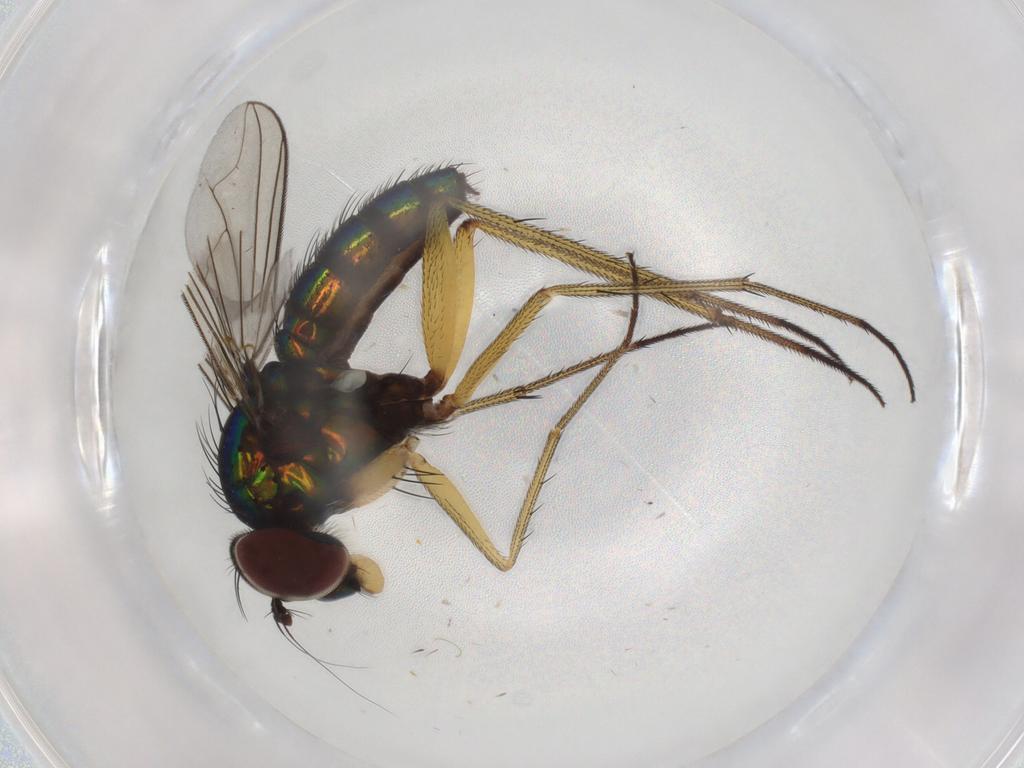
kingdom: Animalia
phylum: Arthropoda
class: Insecta
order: Diptera
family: Dolichopodidae
